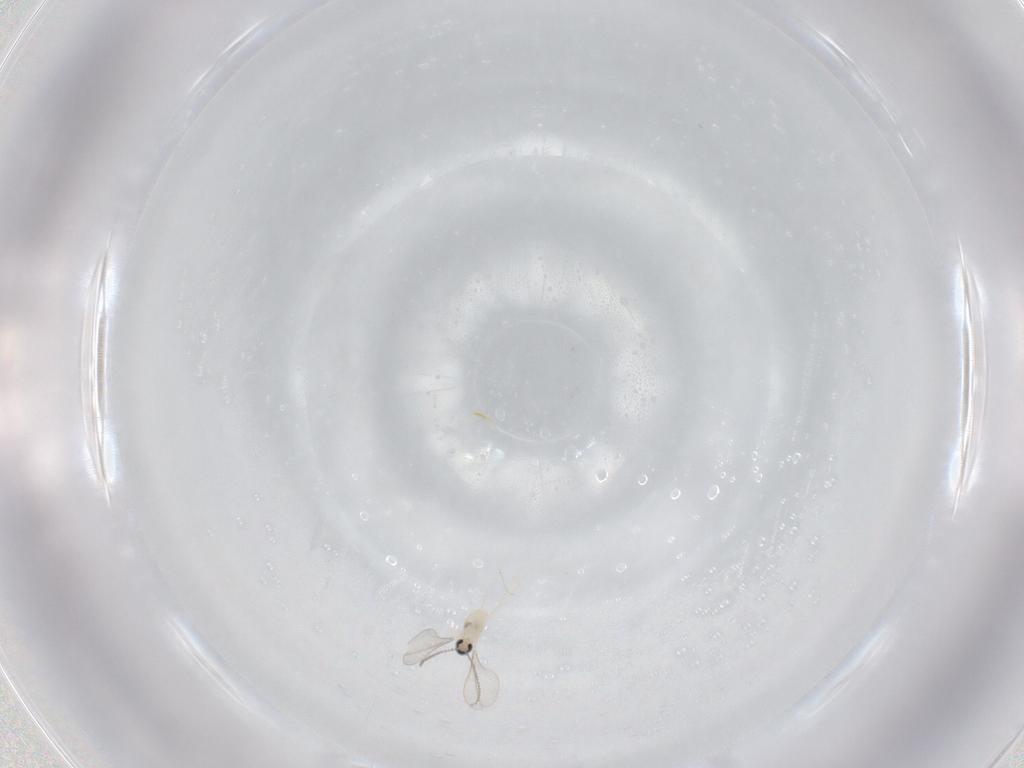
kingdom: Animalia
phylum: Arthropoda
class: Insecta
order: Diptera
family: Cecidomyiidae
